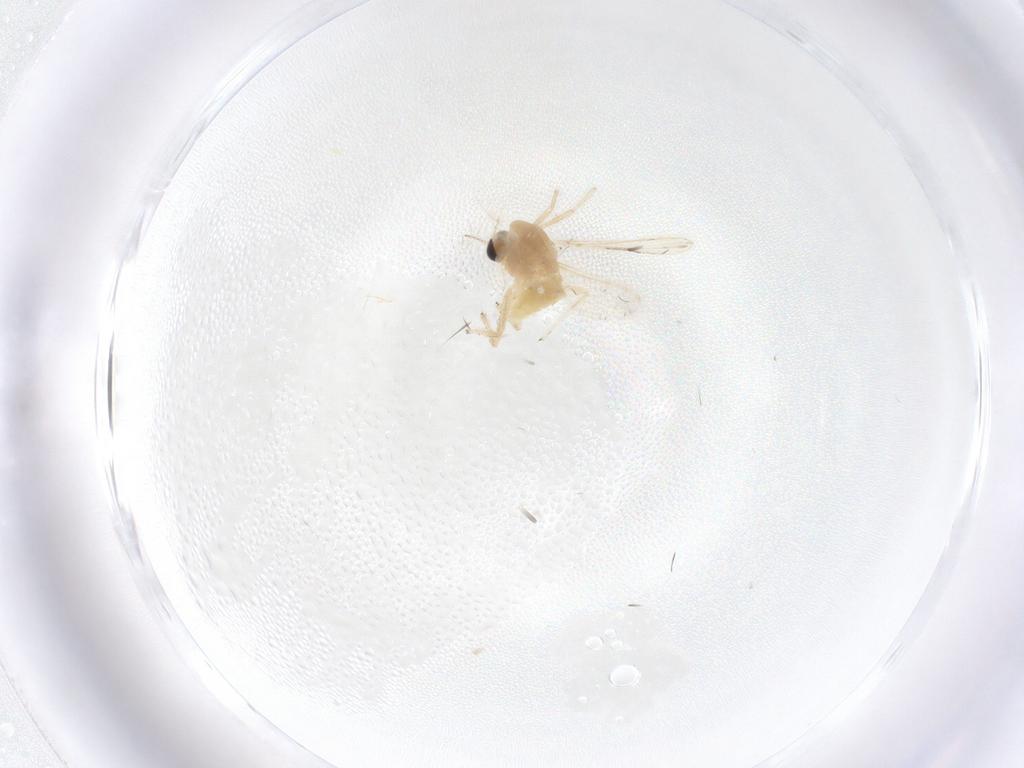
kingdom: Animalia
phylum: Arthropoda
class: Insecta
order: Diptera
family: Chironomidae
